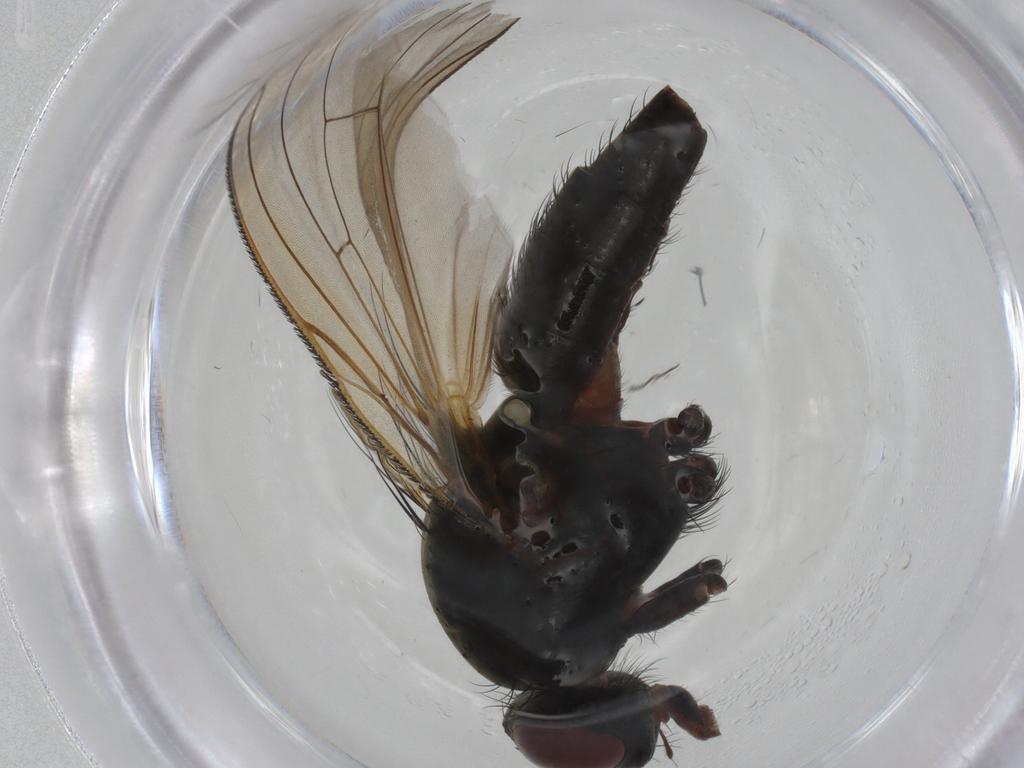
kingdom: Animalia
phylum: Arthropoda
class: Insecta
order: Diptera
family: Anthomyiidae
